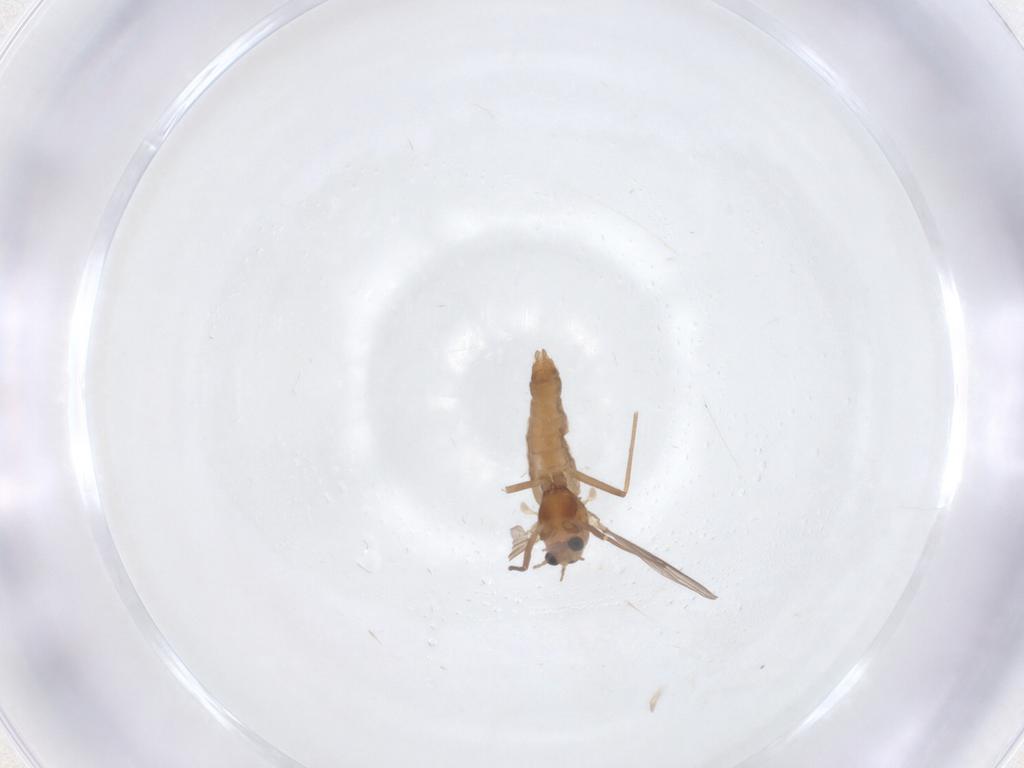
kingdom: Animalia
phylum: Arthropoda
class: Insecta
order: Diptera
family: Chironomidae
